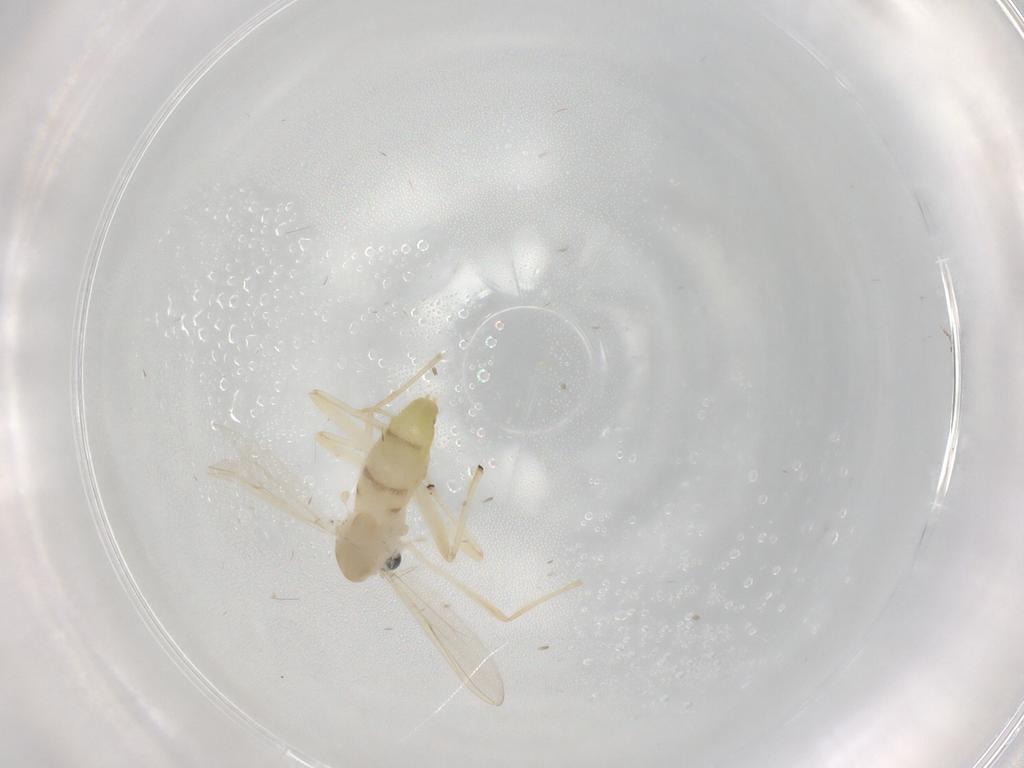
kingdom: Animalia
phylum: Arthropoda
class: Insecta
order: Diptera
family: Chironomidae
